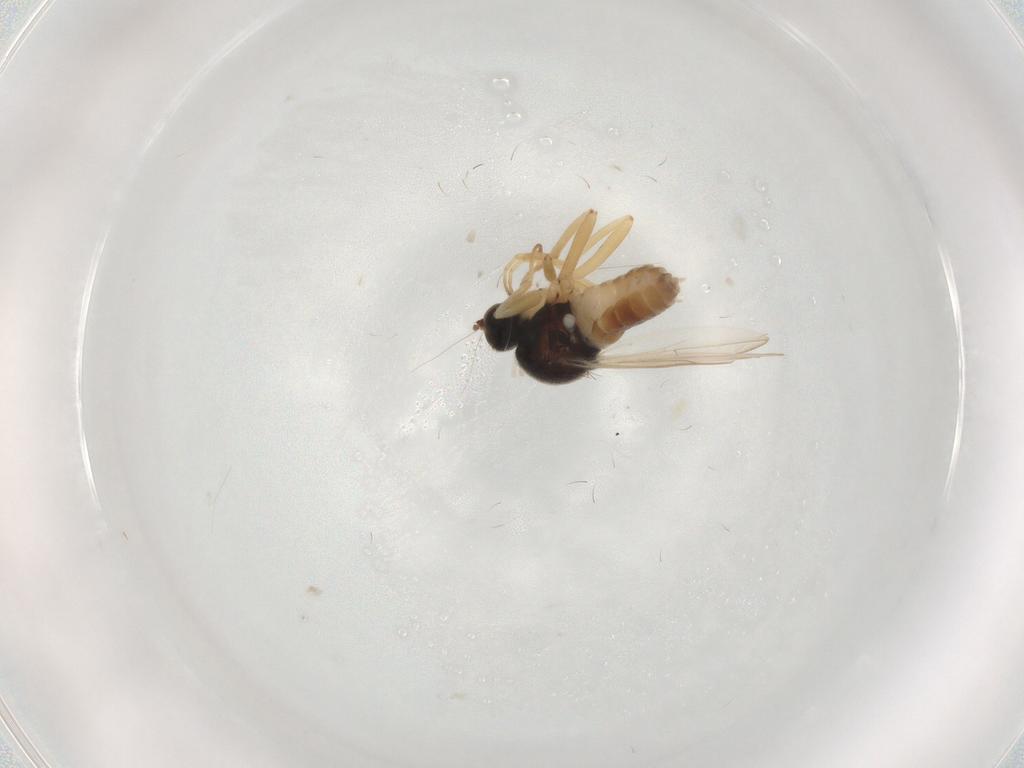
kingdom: Animalia
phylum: Arthropoda
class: Insecta
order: Diptera
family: Hybotidae
